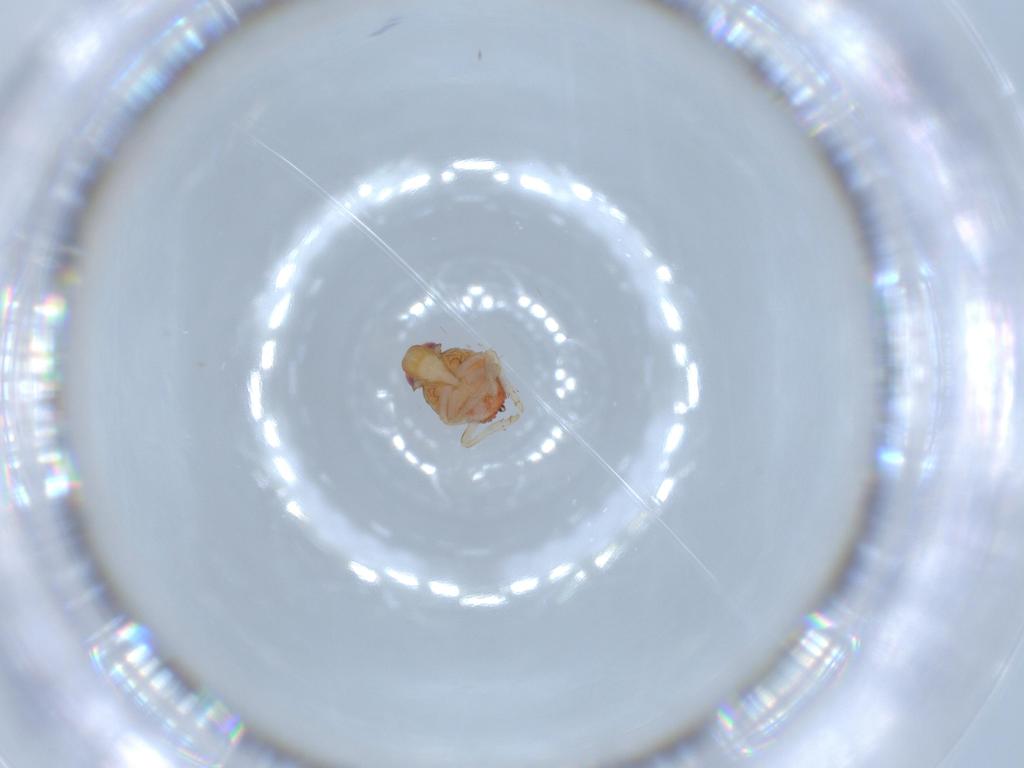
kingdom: Animalia
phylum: Arthropoda
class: Insecta
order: Hemiptera
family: Issidae
